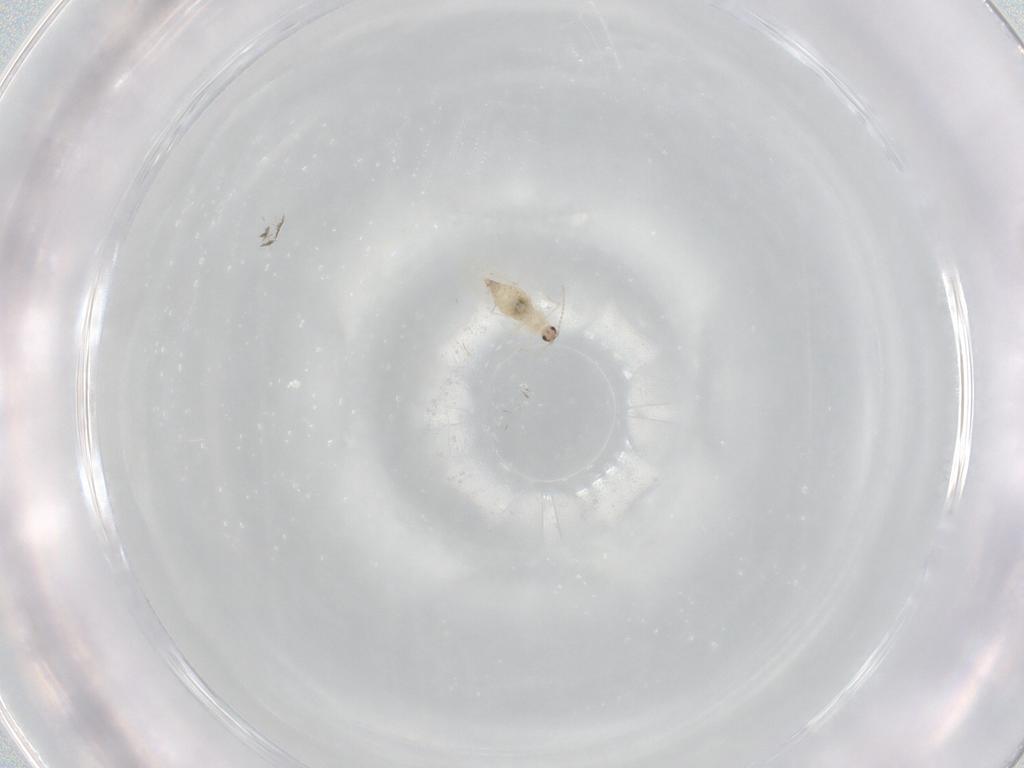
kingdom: Animalia
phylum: Arthropoda
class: Insecta
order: Diptera
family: Cecidomyiidae
